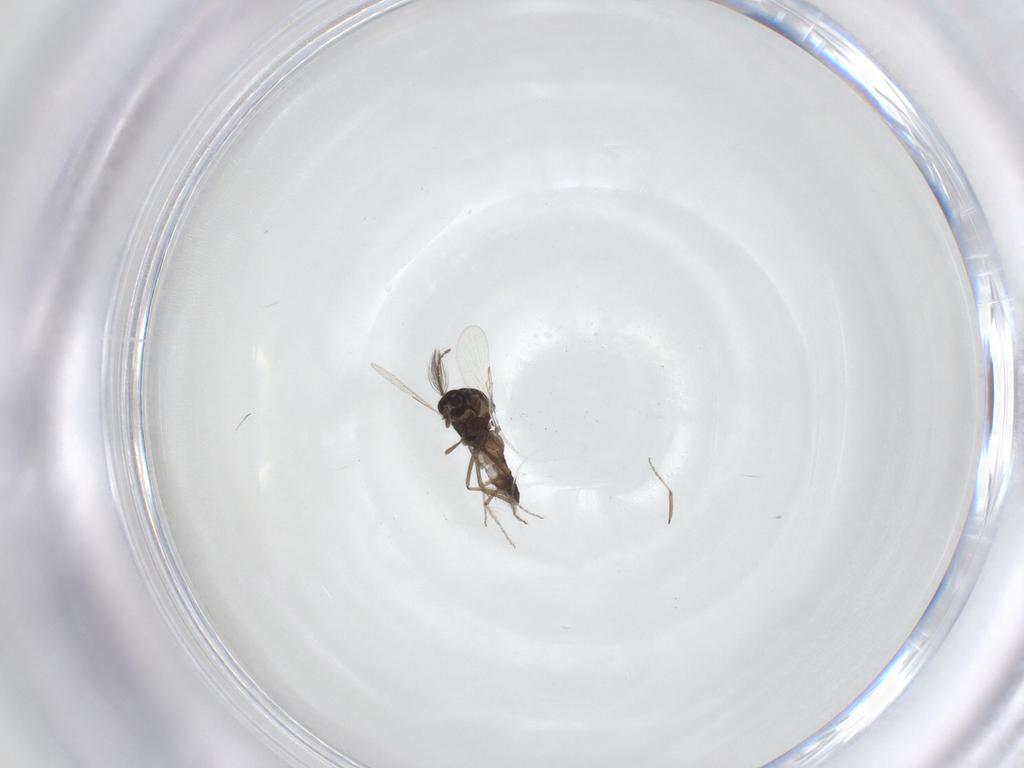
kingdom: Animalia
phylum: Arthropoda
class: Insecta
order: Diptera
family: Ceratopogonidae
